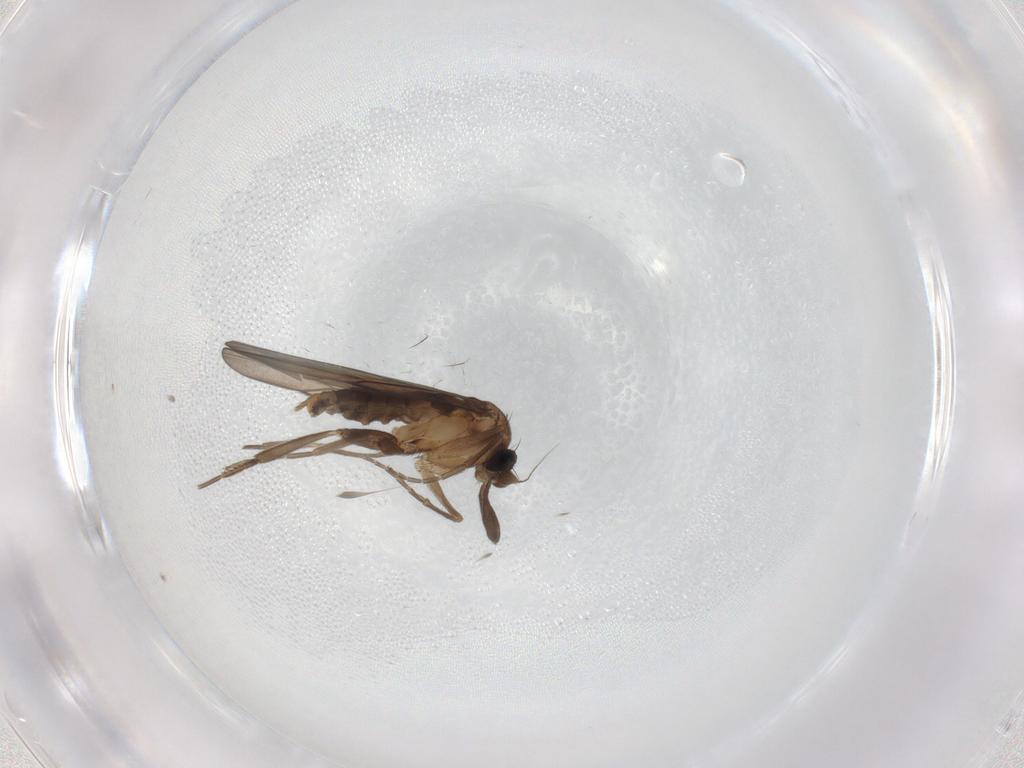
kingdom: Animalia
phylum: Arthropoda
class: Insecta
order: Diptera
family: Phoridae
